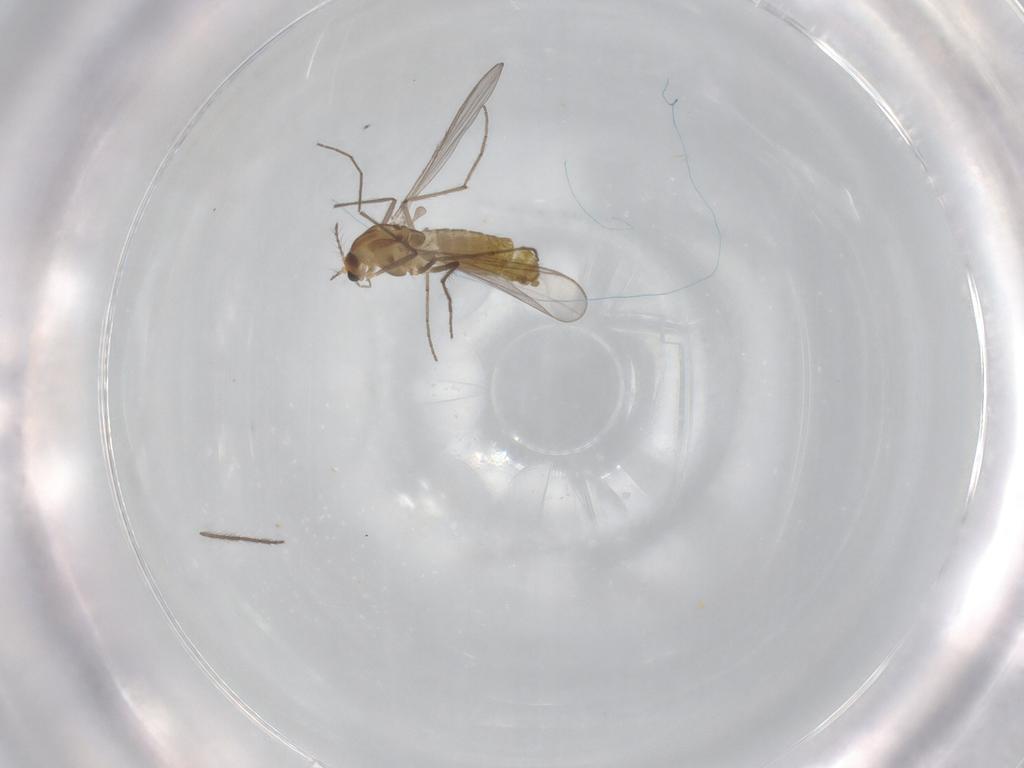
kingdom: Animalia
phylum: Arthropoda
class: Insecta
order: Diptera
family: Chironomidae
